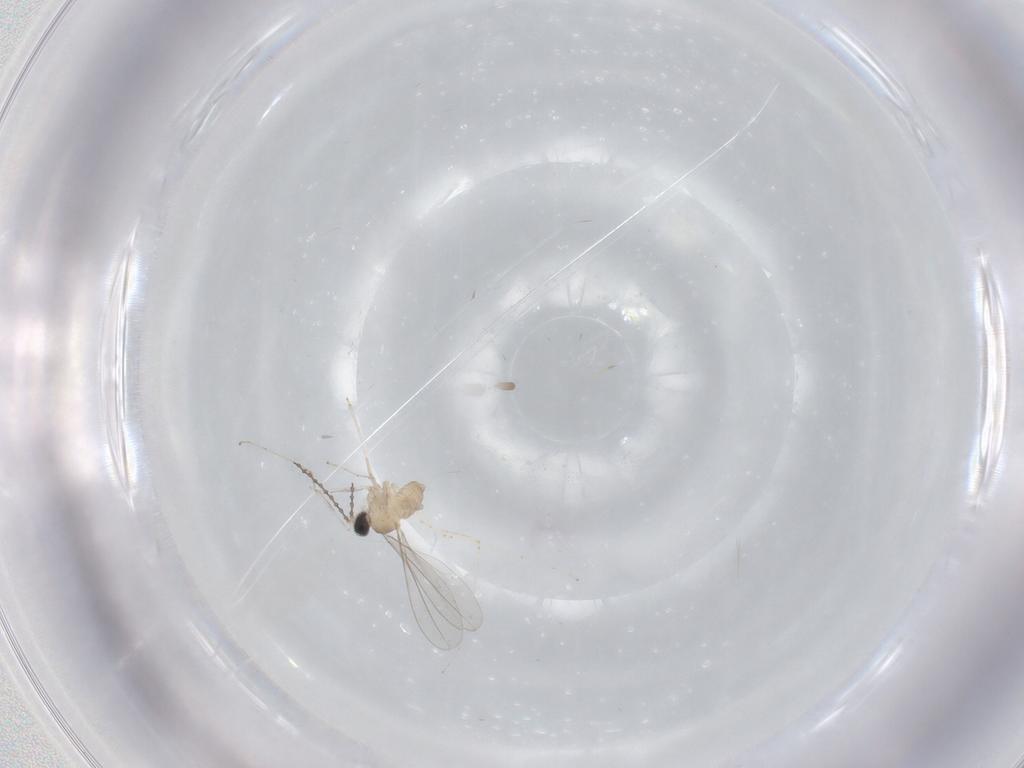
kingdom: Animalia
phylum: Arthropoda
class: Insecta
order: Diptera
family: Cecidomyiidae
